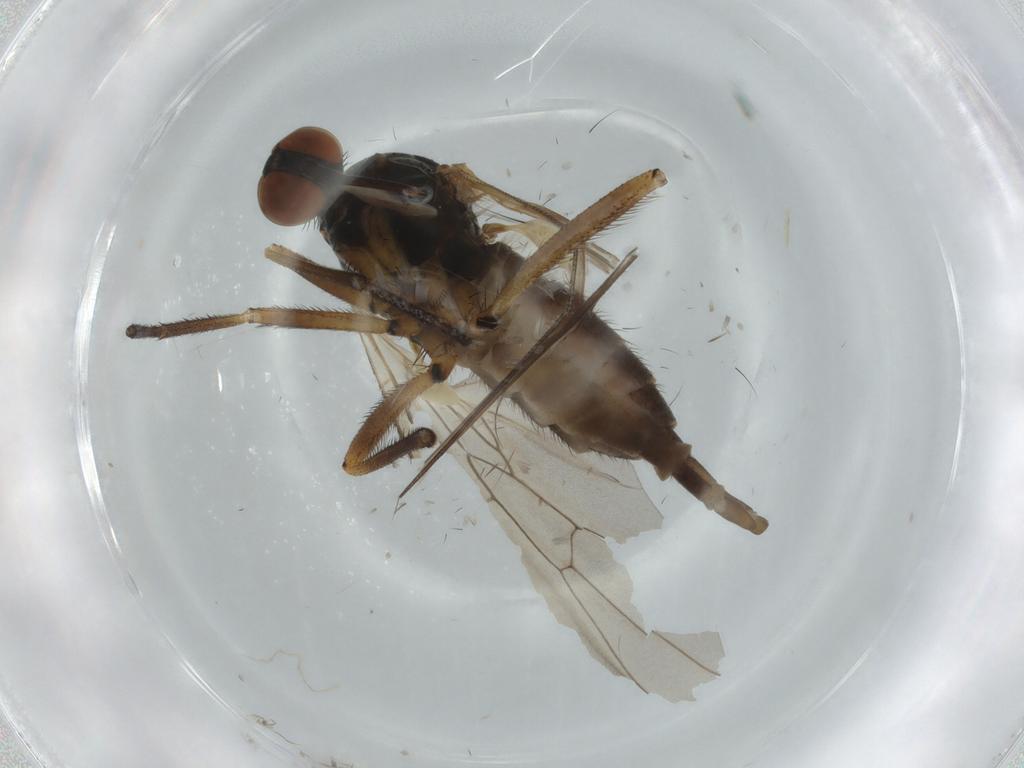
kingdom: Animalia
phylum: Arthropoda
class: Insecta
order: Diptera
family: Empididae
